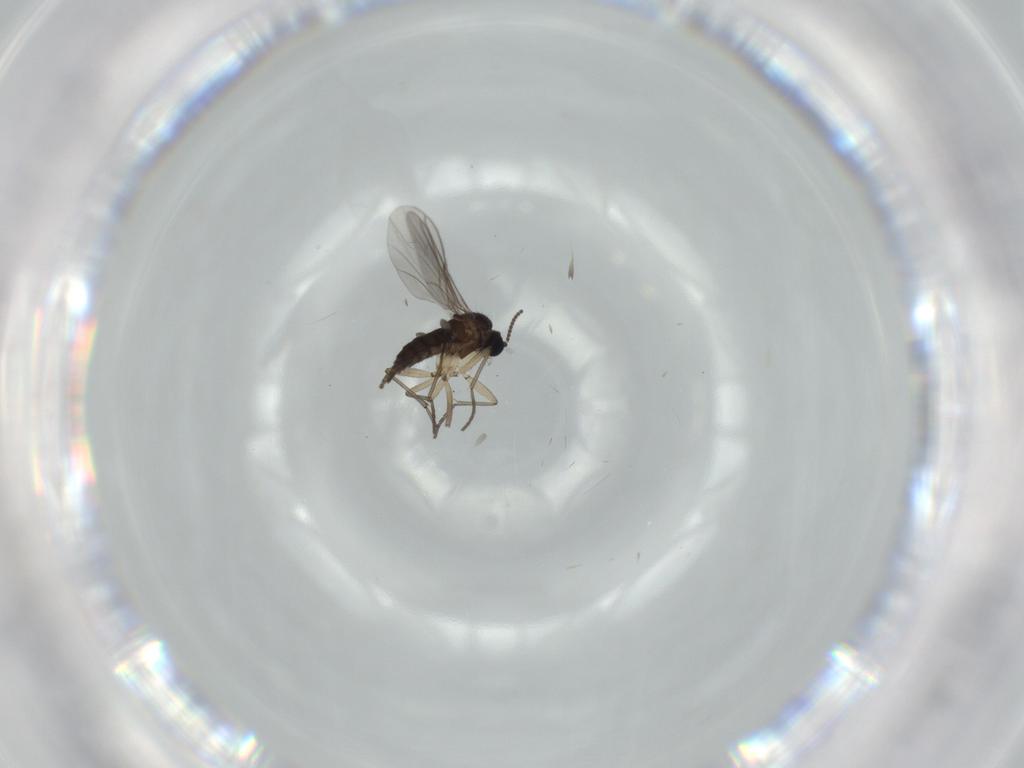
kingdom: Animalia
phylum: Arthropoda
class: Insecta
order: Diptera
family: Sciaridae
